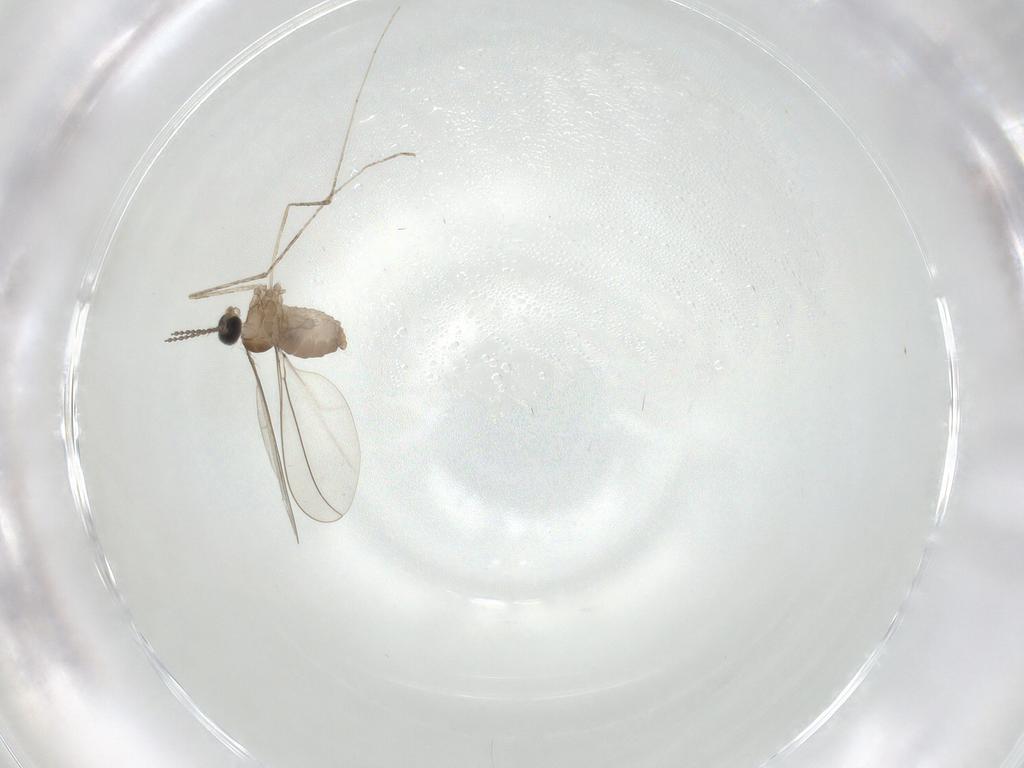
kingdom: Animalia
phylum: Arthropoda
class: Insecta
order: Diptera
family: Cecidomyiidae
